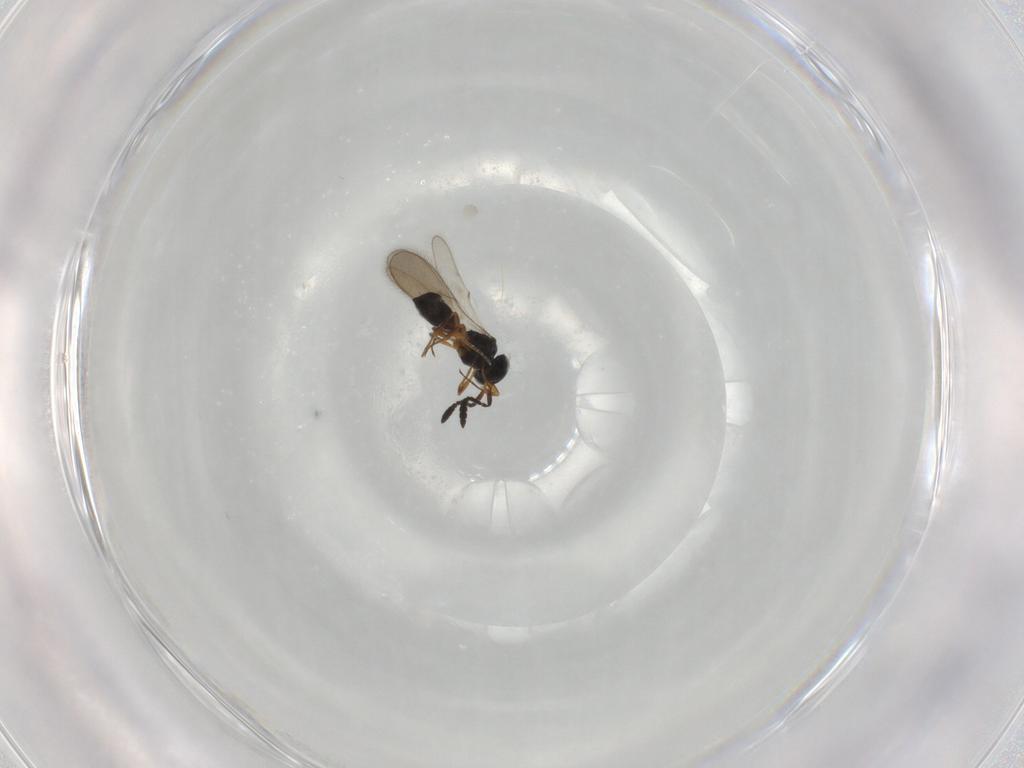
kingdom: Animalia
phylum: Arthropoda
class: Insecta
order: Hymenoptera
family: Scelionidae
